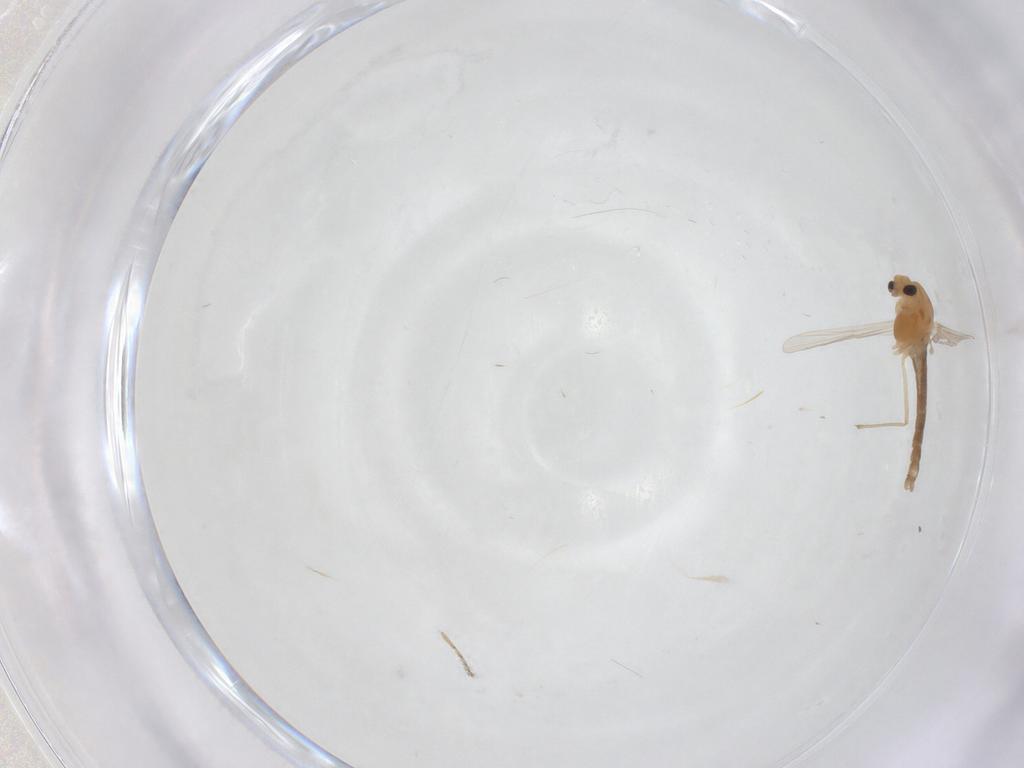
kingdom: Animalia
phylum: Arthropoda
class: Insecta
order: Diptera
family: Chironomidae
